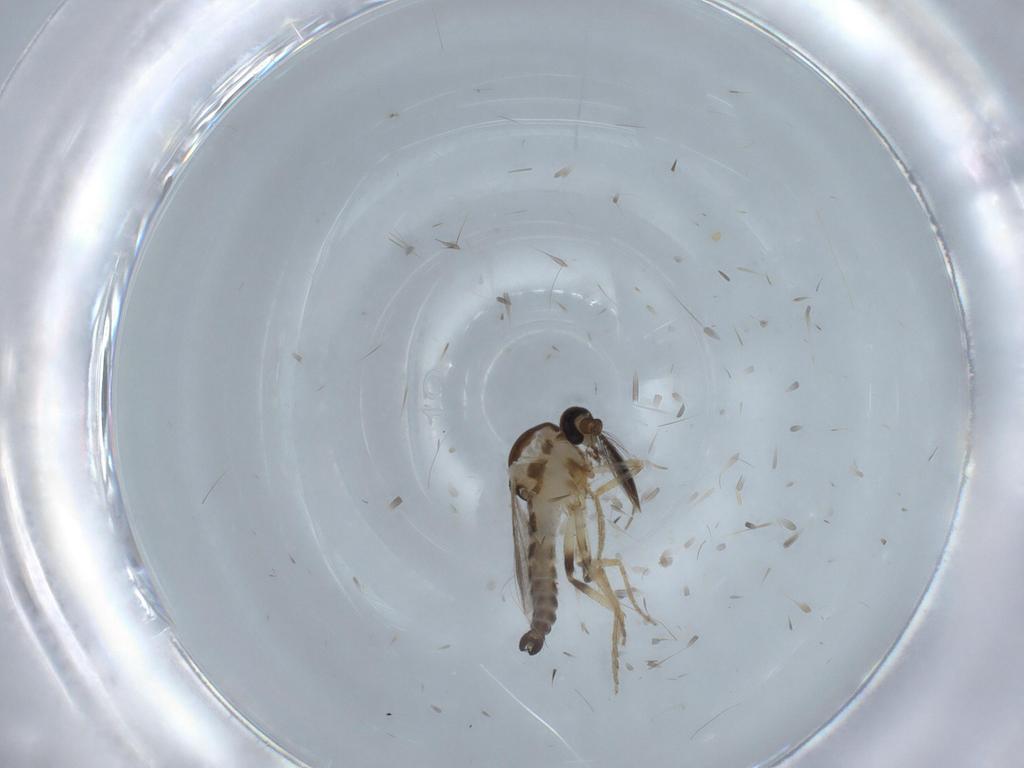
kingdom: Animalia
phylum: Arthropoda
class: Insecta
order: Diptera
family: Ceratopogonidae
